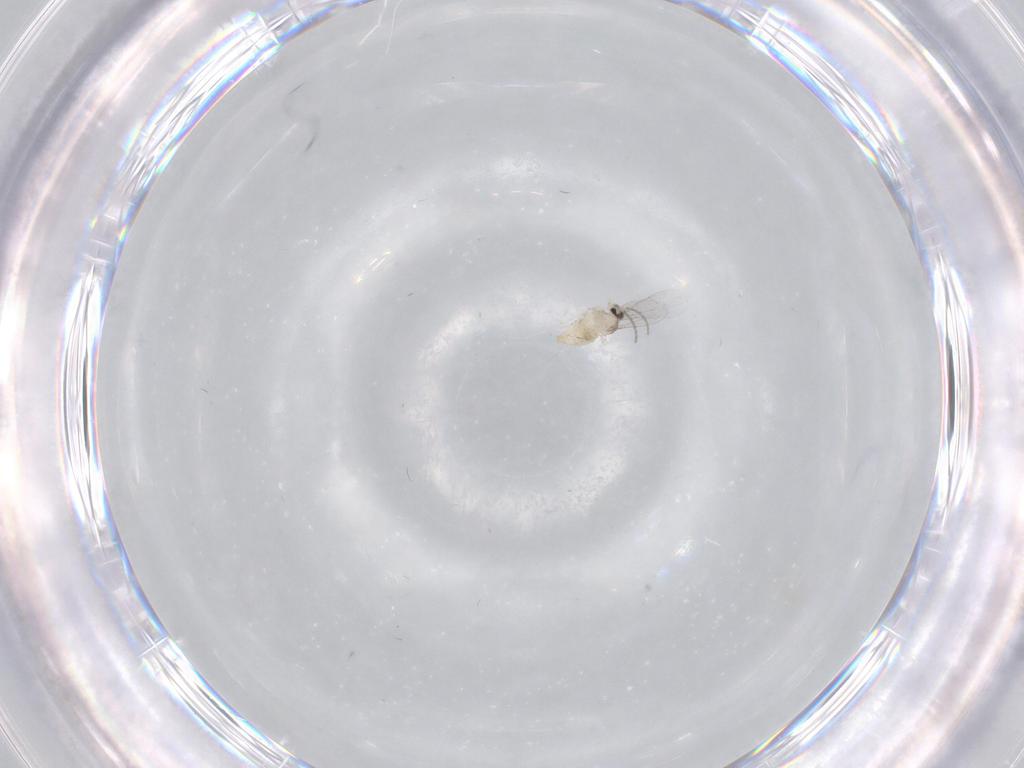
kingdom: Animalia
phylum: Arthropoda
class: Insecta
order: Diptera
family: Cecidomyiidae
